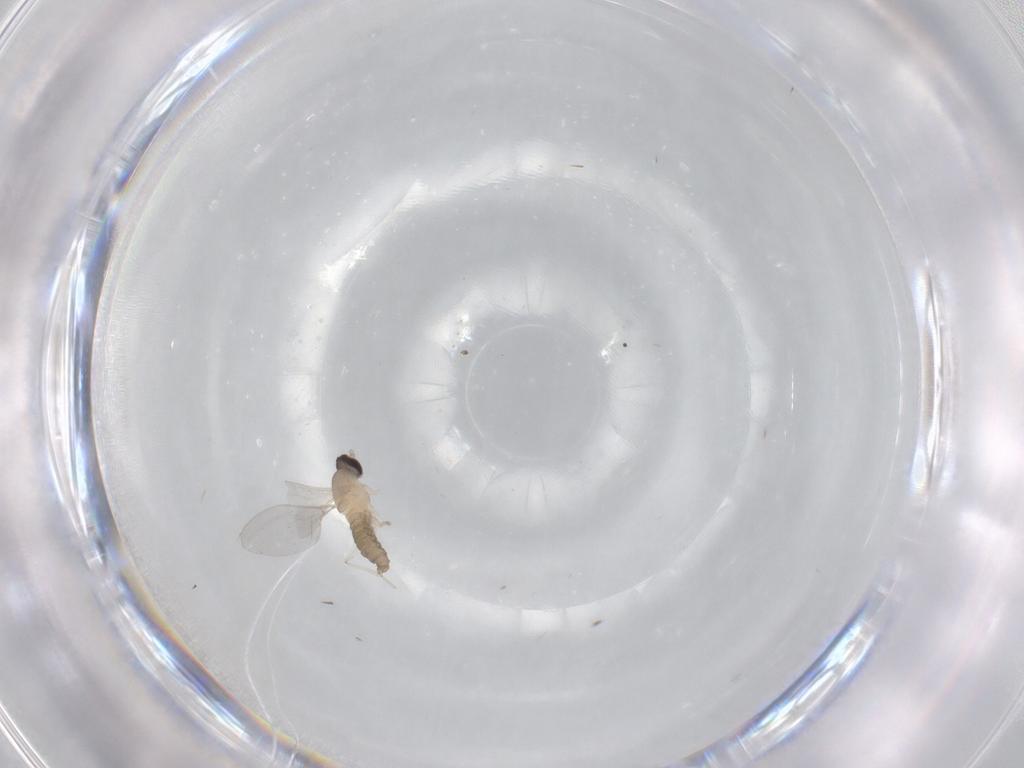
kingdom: Animalia
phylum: Arthropoda
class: Insecta
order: Diptera
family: Cecidomyiidae
